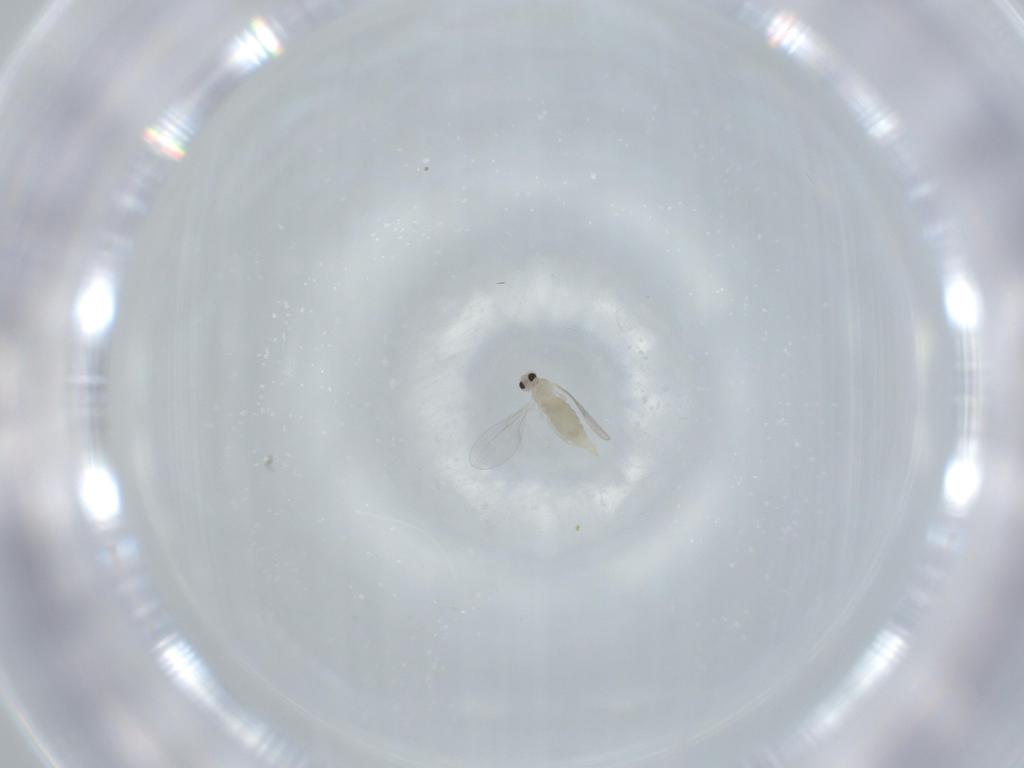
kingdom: Animalia
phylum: Arthropoda
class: Insecta
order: Diptera
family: Cecidomyiidae
